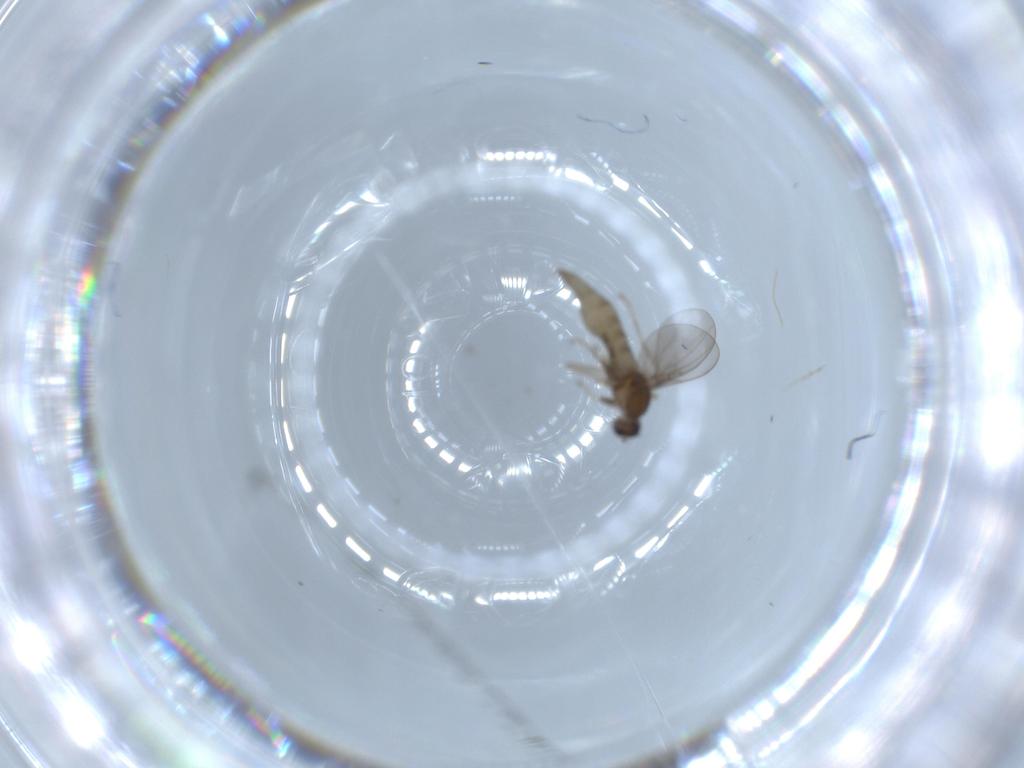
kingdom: Animalia
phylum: Arthropoda
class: Insecta
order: Diptera
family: Cecidomyiidae
